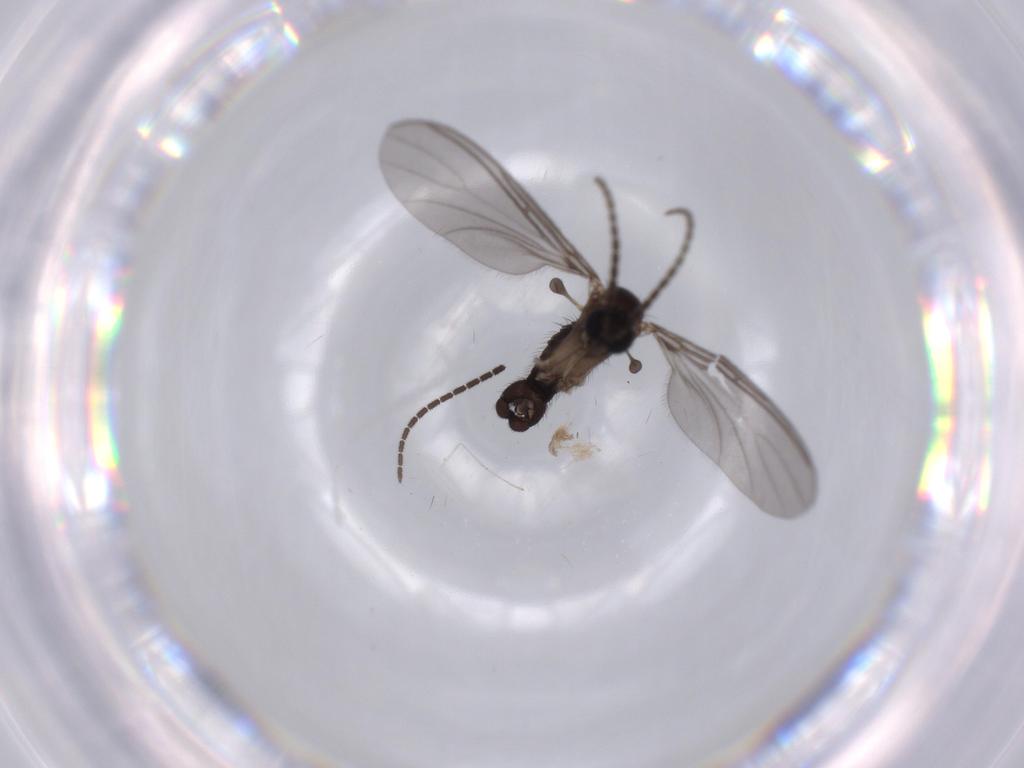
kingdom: Animalia
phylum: Arthropoda
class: Insecta
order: Diptera
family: Sciaridae
